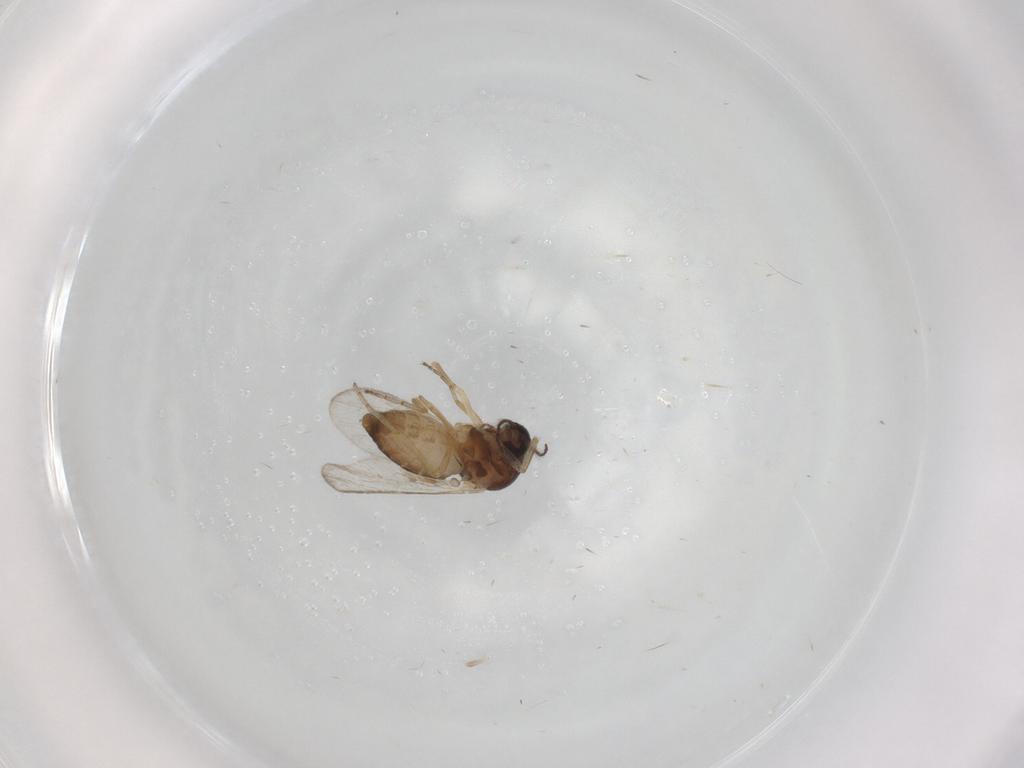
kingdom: Animalia
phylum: Arthropoda
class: Insecta
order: Diptera
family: Ceratopogonidae
